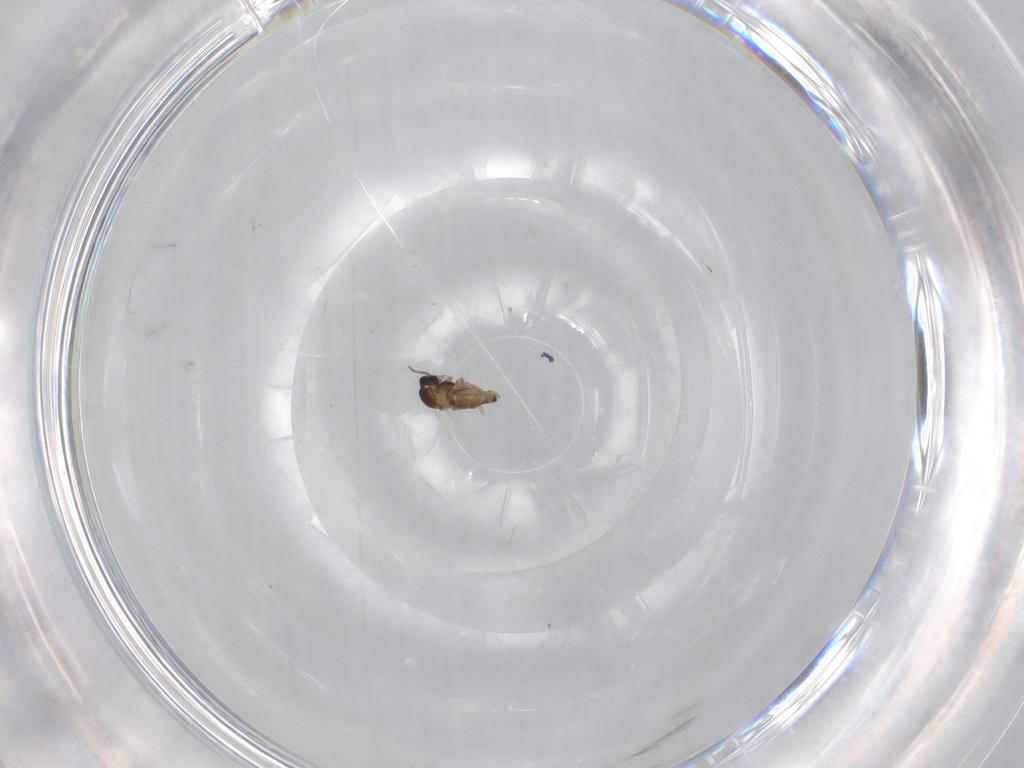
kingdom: Animalia
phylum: Arthropoda
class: Insecta
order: Diptera
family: Cecidomyiidae
